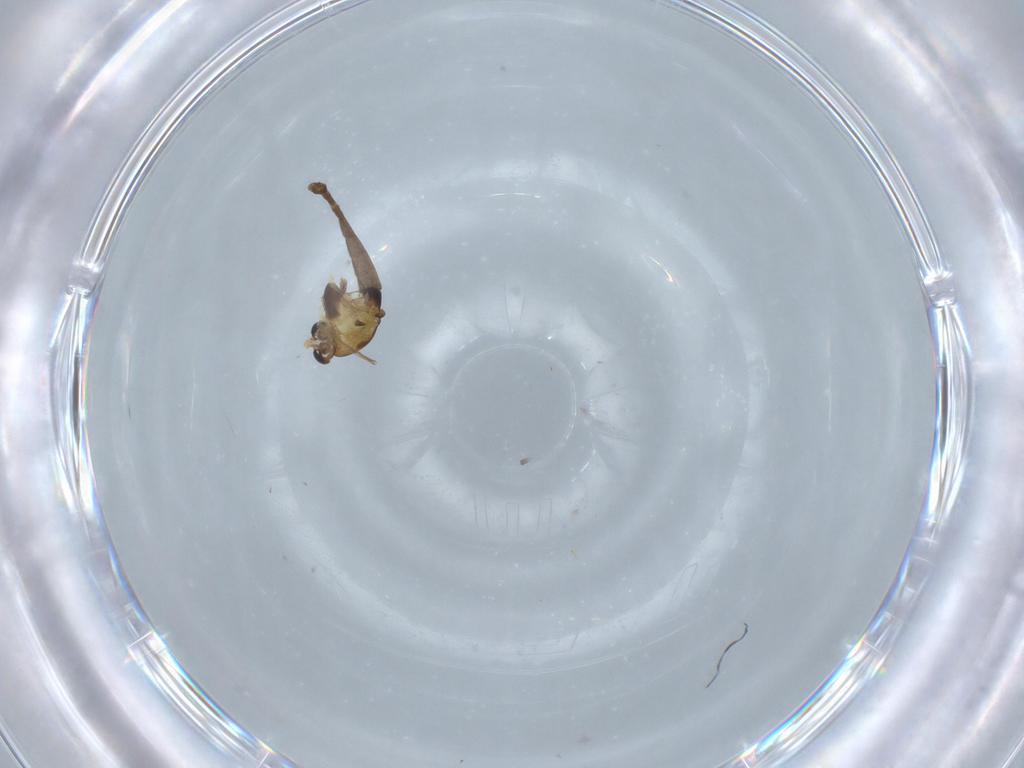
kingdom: Animalia
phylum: Arthropoda
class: Insecta
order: Diptera
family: Chironomidae
